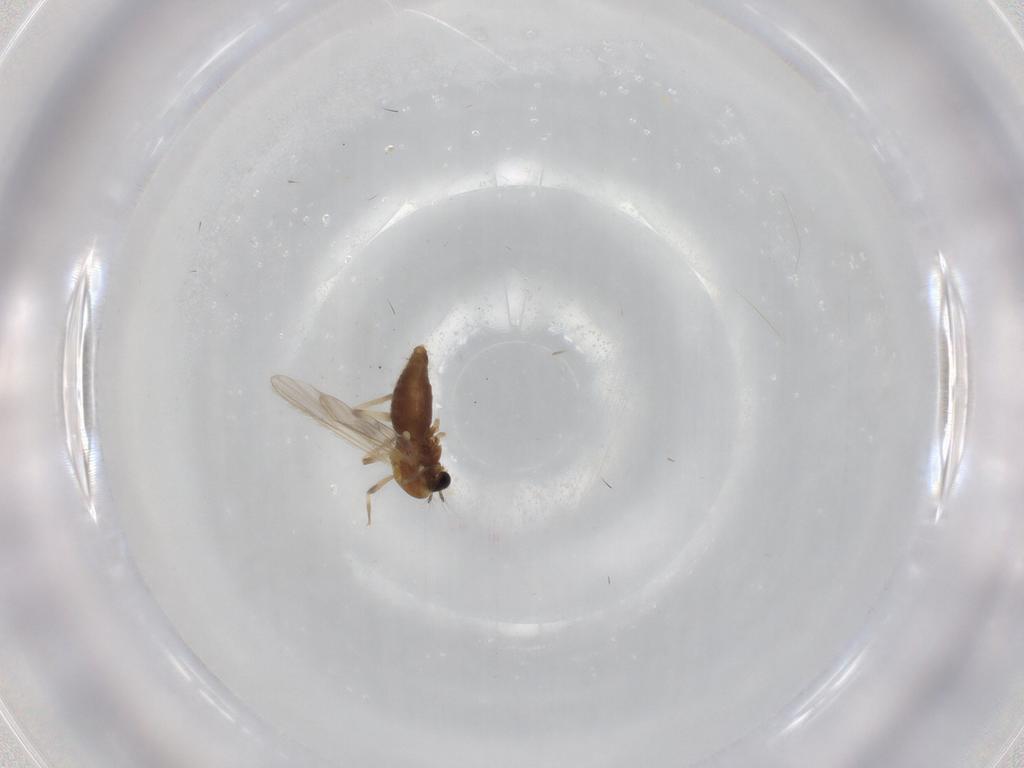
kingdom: Animalia
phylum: Arthropoda
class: Insecta
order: Diptera
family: Chironomidae
